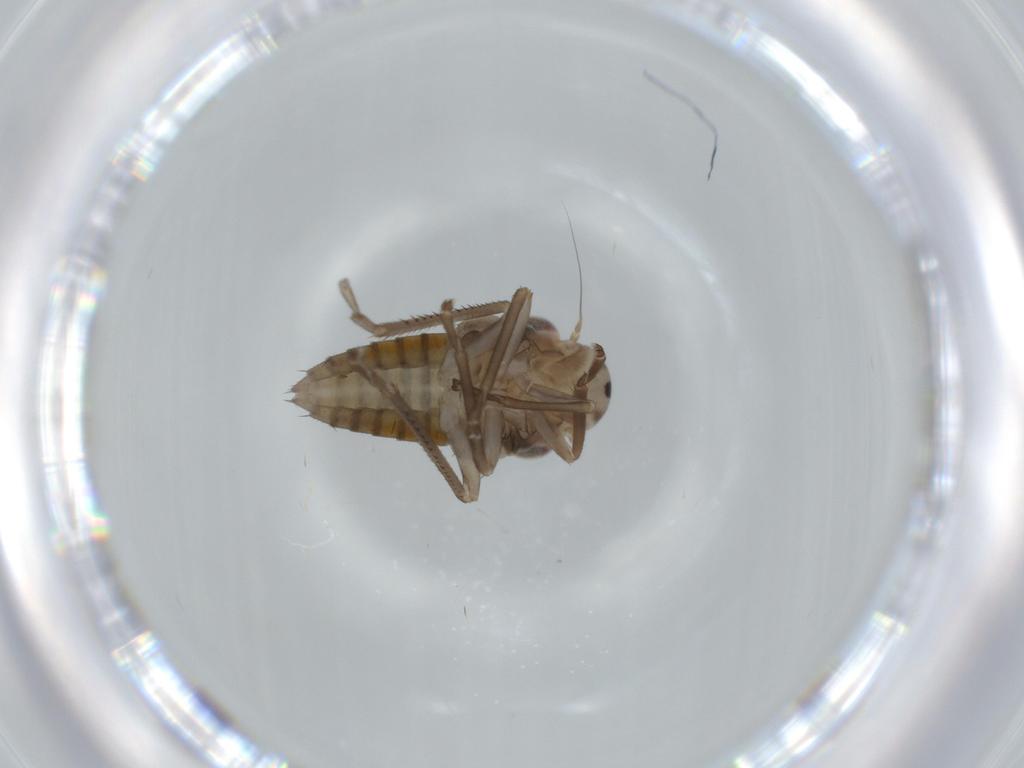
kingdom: Animalia
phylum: Arthropoda
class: Insecta
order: Hemiptera
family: Cicadellidae
